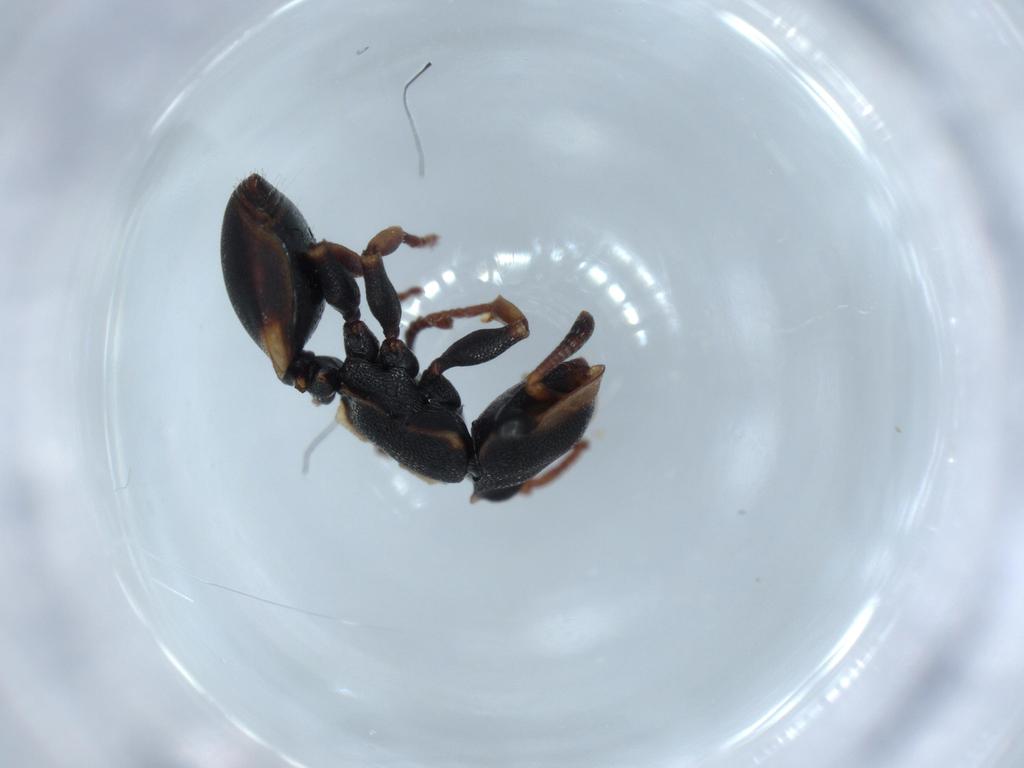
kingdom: Animalia
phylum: Arthropoda
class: Insecta
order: Hymenoptera
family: Formicidae
